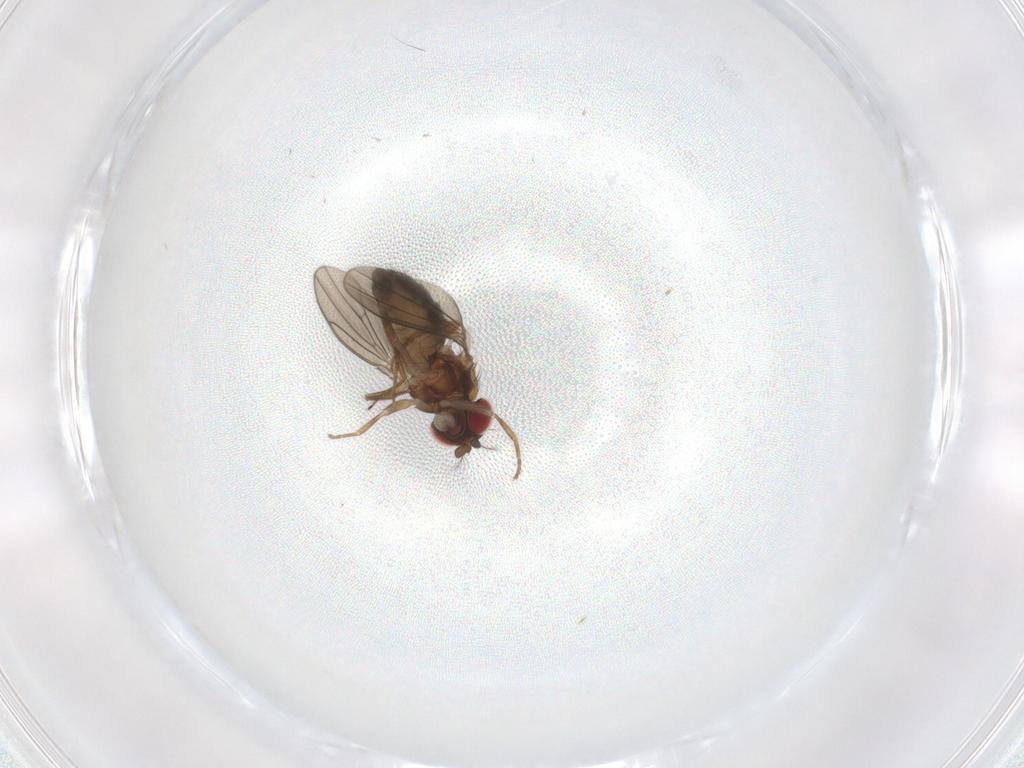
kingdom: Animalia
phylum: Arthropoda
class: Insecta
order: Diptera
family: Drosophilidae
